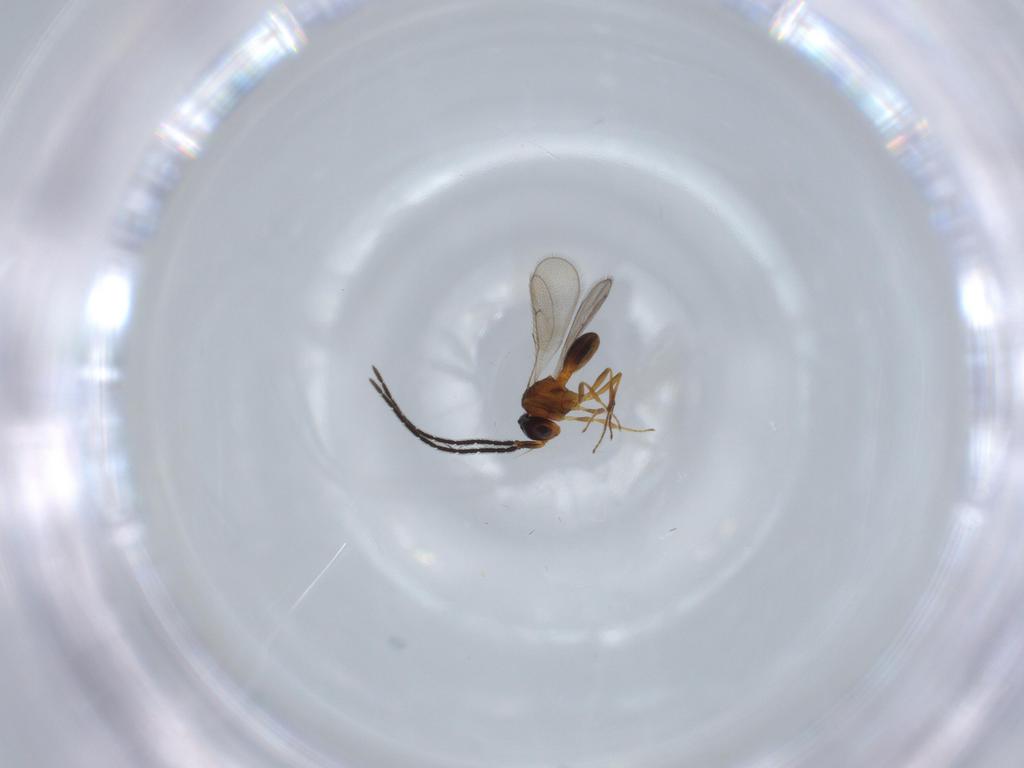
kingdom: Animalia
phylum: Arthropoda
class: Insecta
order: Hymenoptera
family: Scelionidae
